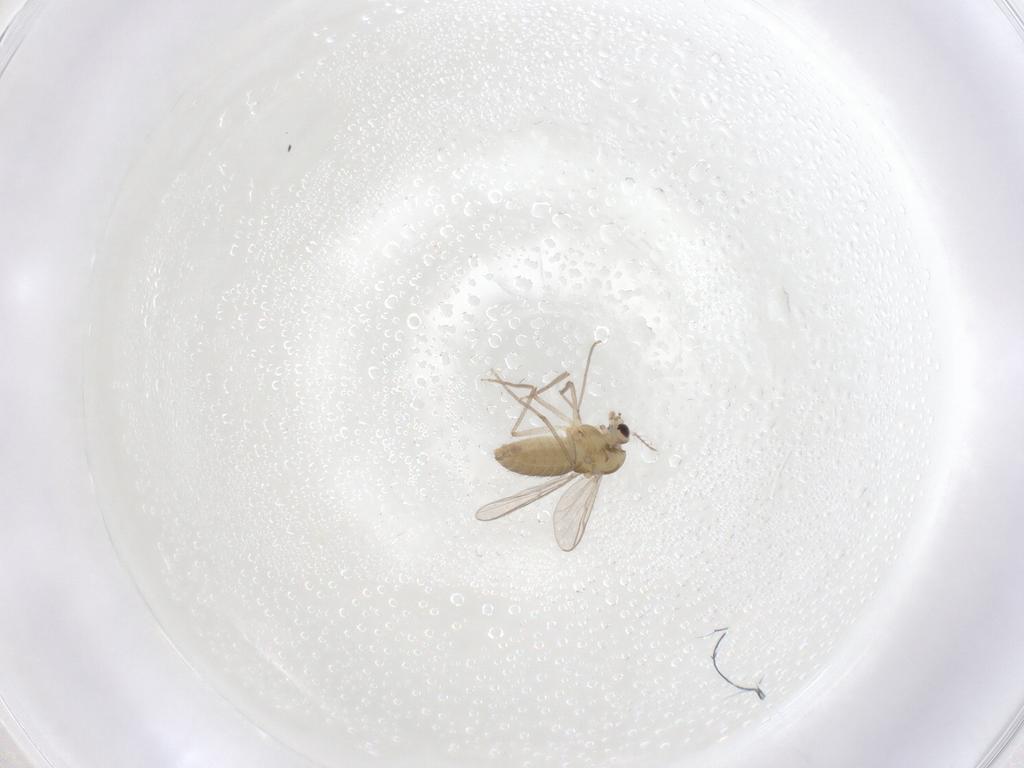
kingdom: Animalia
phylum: Arthropoda
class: Insecta
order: Diptera
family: Chironomidae
